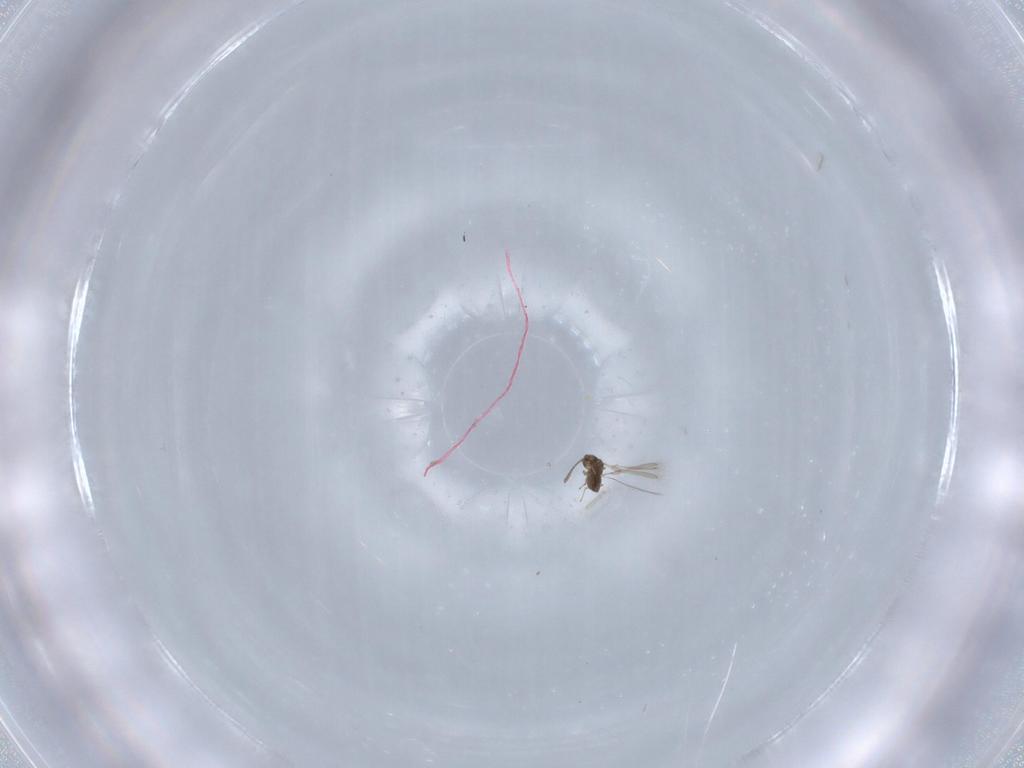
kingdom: Animalia
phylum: Arthropoda
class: Insecta
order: Hymenoptera
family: Mymaridae
